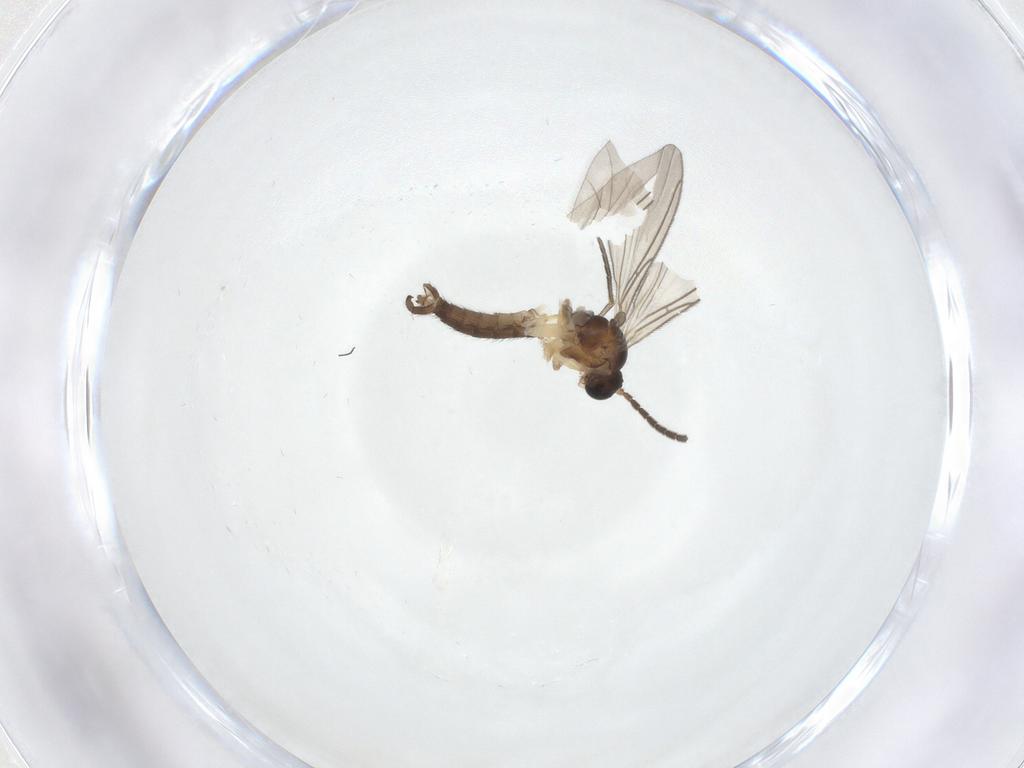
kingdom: Animalia
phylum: Arthropoda
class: Insecta
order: Diptera
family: Sciaridae
